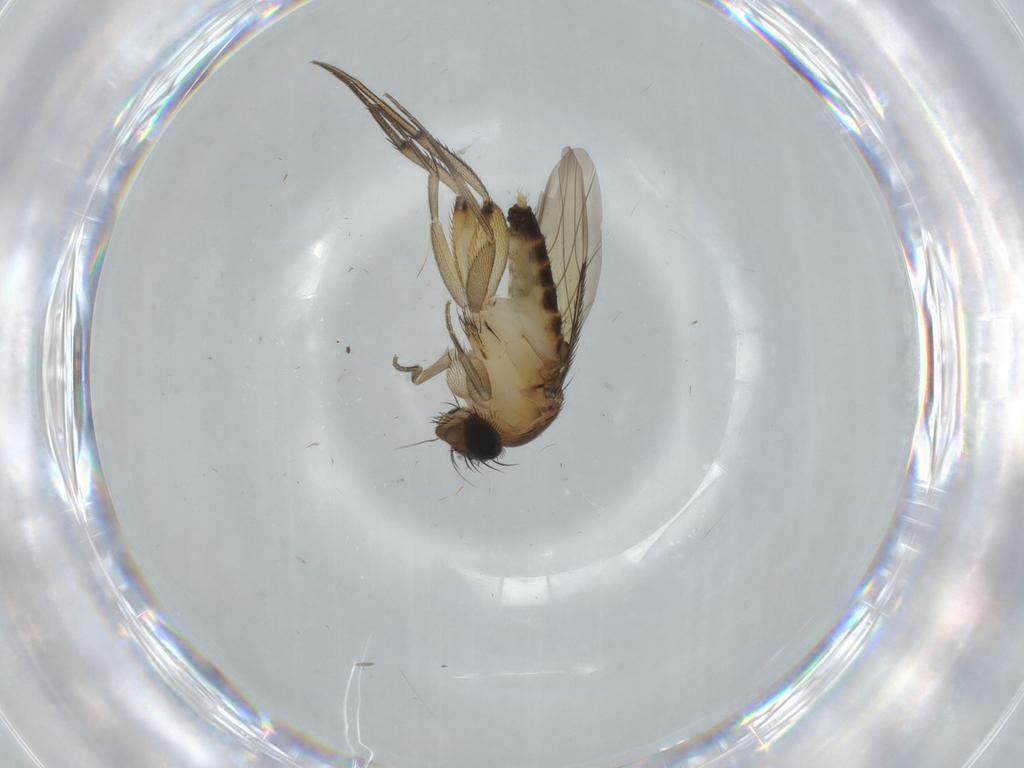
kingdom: Animalia
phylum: Arthropoda
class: Insecta
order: Diptera
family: Phoridae
